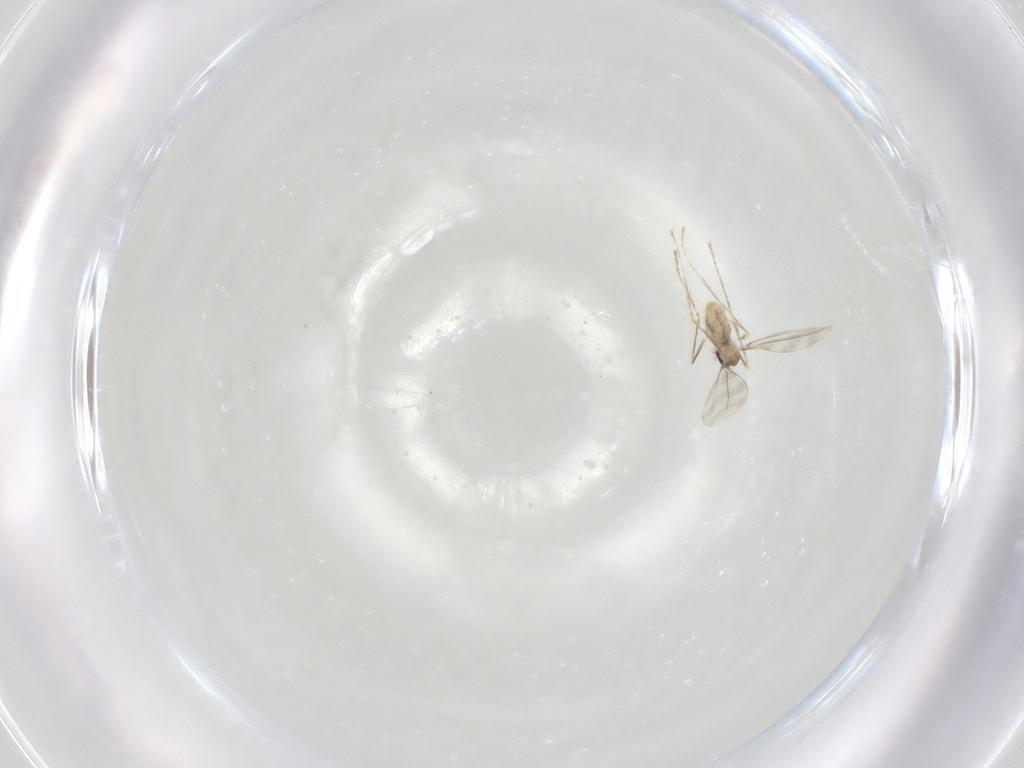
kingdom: Animalia
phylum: Arthropoda
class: Insecta
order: Diptera
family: Cecidomyiidae
